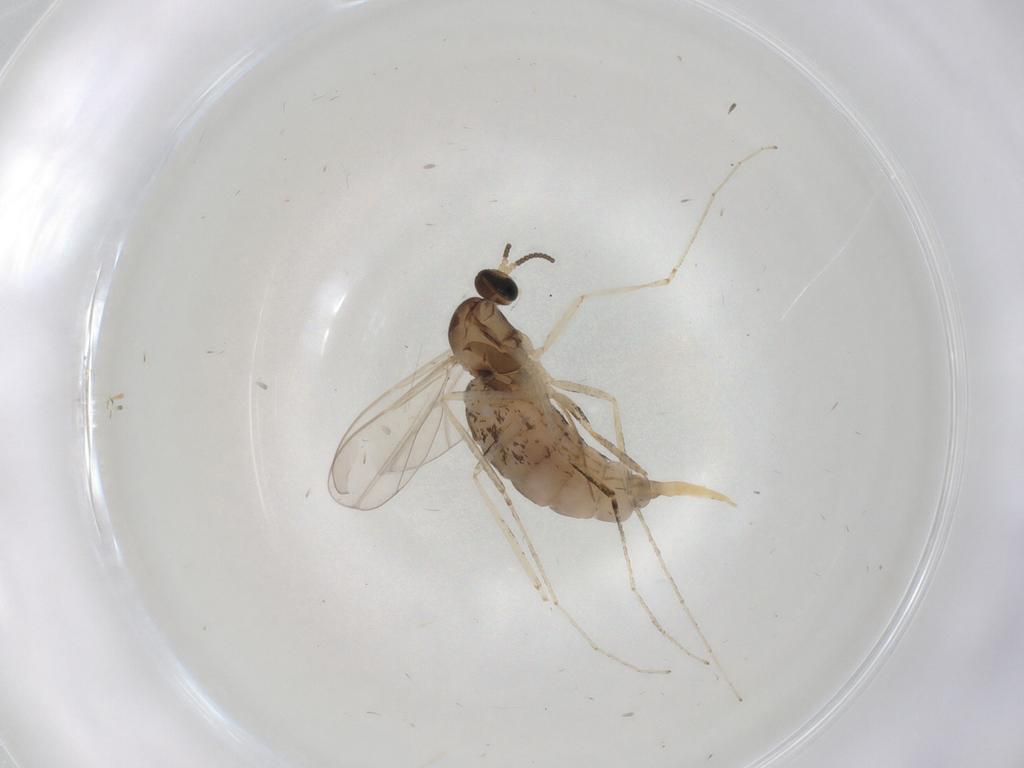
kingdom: Animalia
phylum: Arthropoda
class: Insecta
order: Diptera
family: Cecidomyiidae
